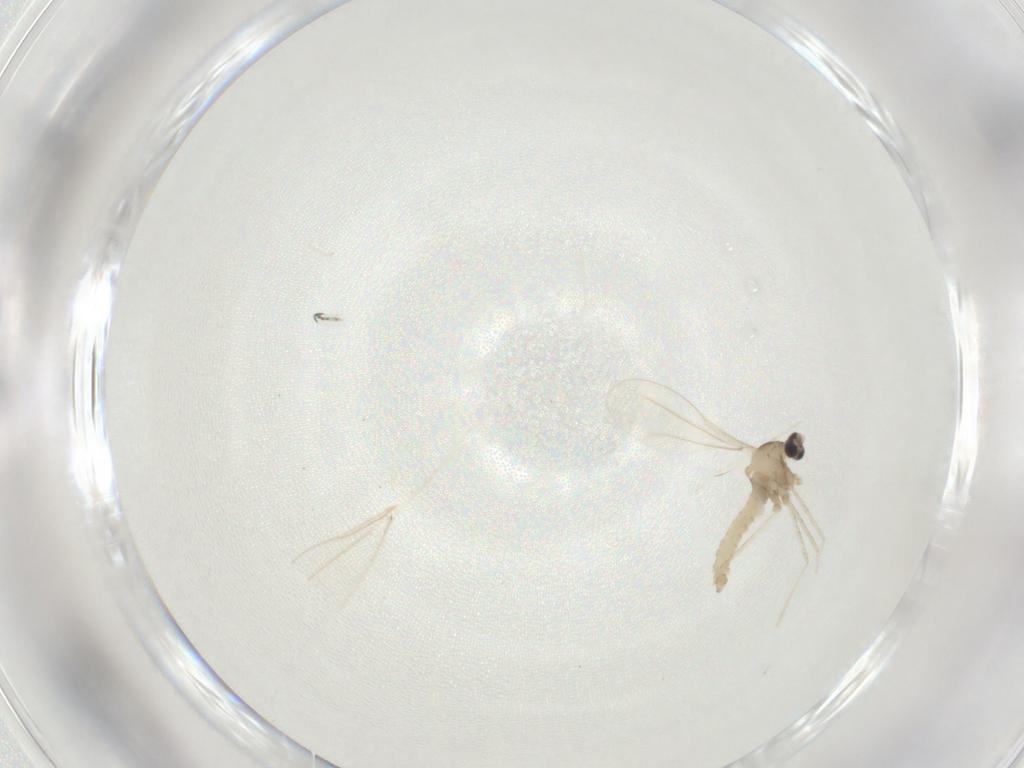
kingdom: Animalia
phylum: Arthropoda
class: Insecta
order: Diptera
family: Cecidomyiidae
